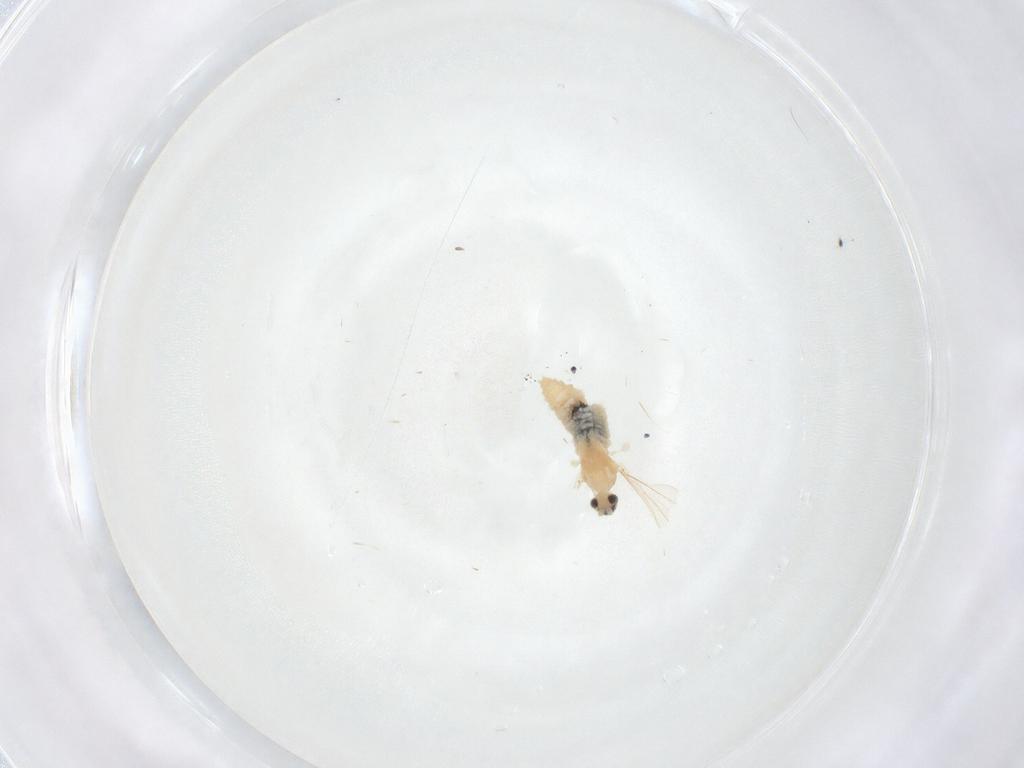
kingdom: Animalia
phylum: Arthropoda
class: Insecta
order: Diptera
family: Cecidomyiidae
